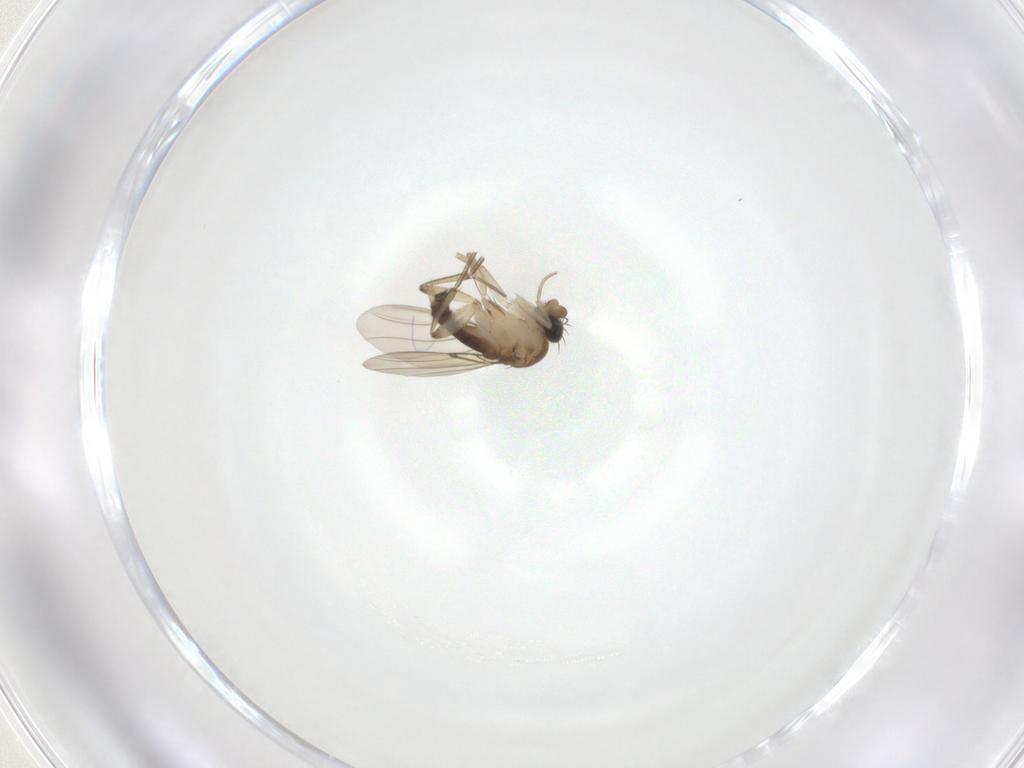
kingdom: Animalia
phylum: Arthropoda
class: Insecta
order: Diptera
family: Phoridae
